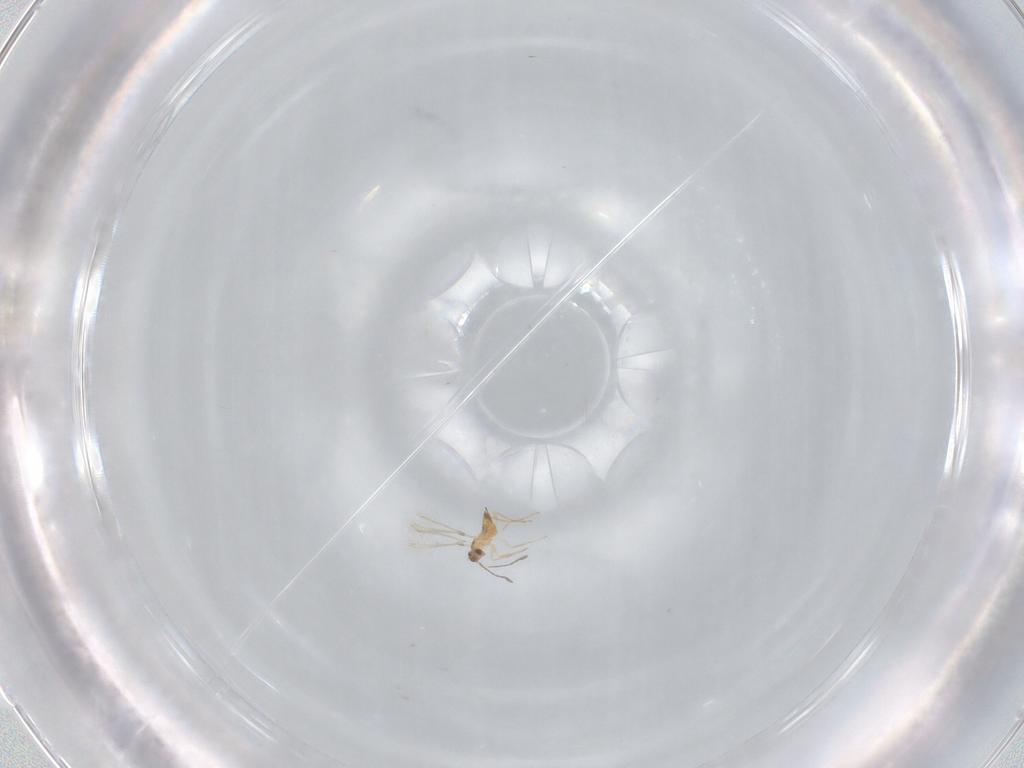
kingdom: Animalia
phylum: Arthropoda
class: Insecta
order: Hymenoptera
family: Mymaridae
